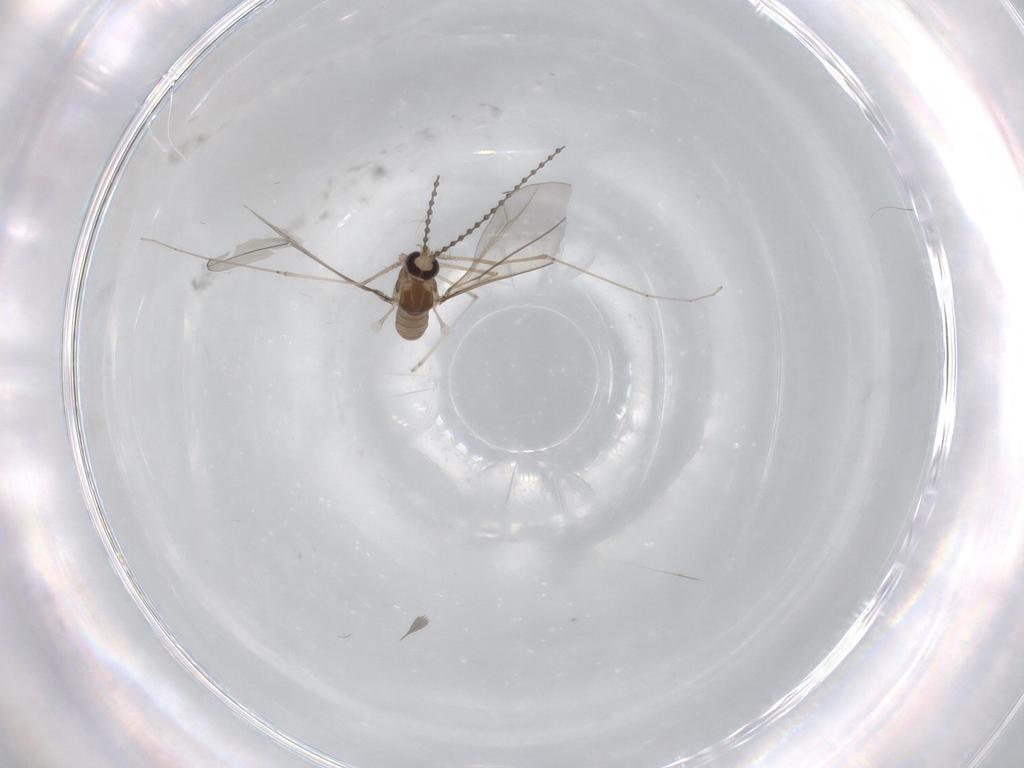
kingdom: Animalia
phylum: Arthropoda
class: Insecta
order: Diptera
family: Cecidomyiidae
